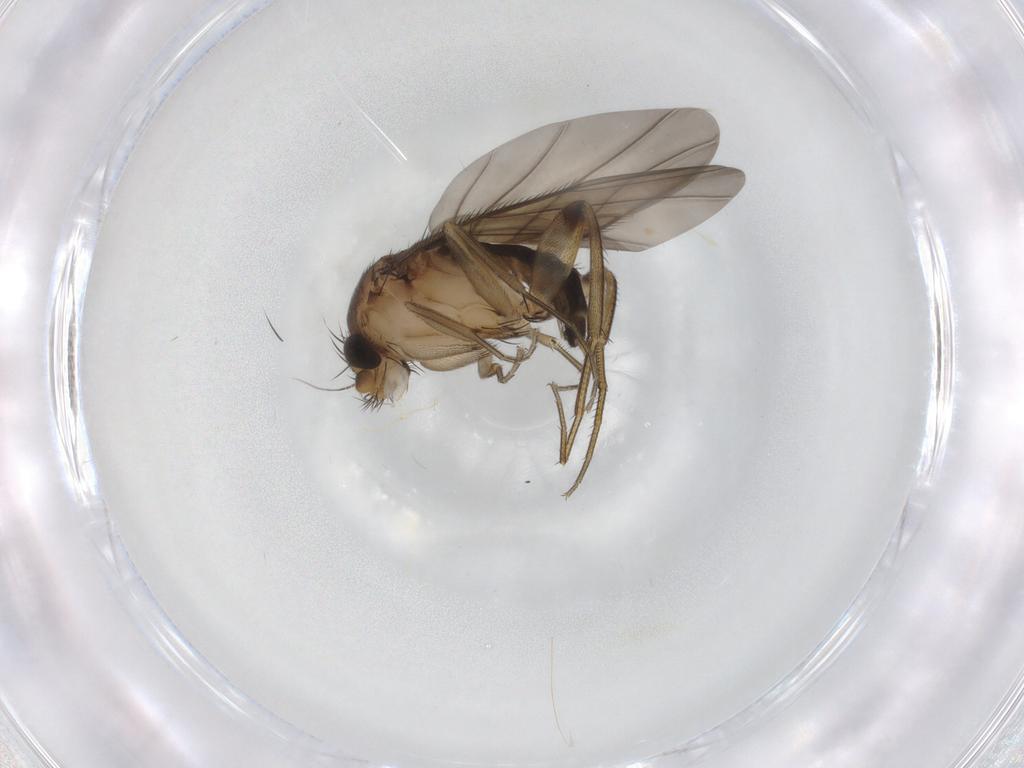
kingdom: Animalia
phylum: Arthropoda
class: Insecta
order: Diptera
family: Phoridae
